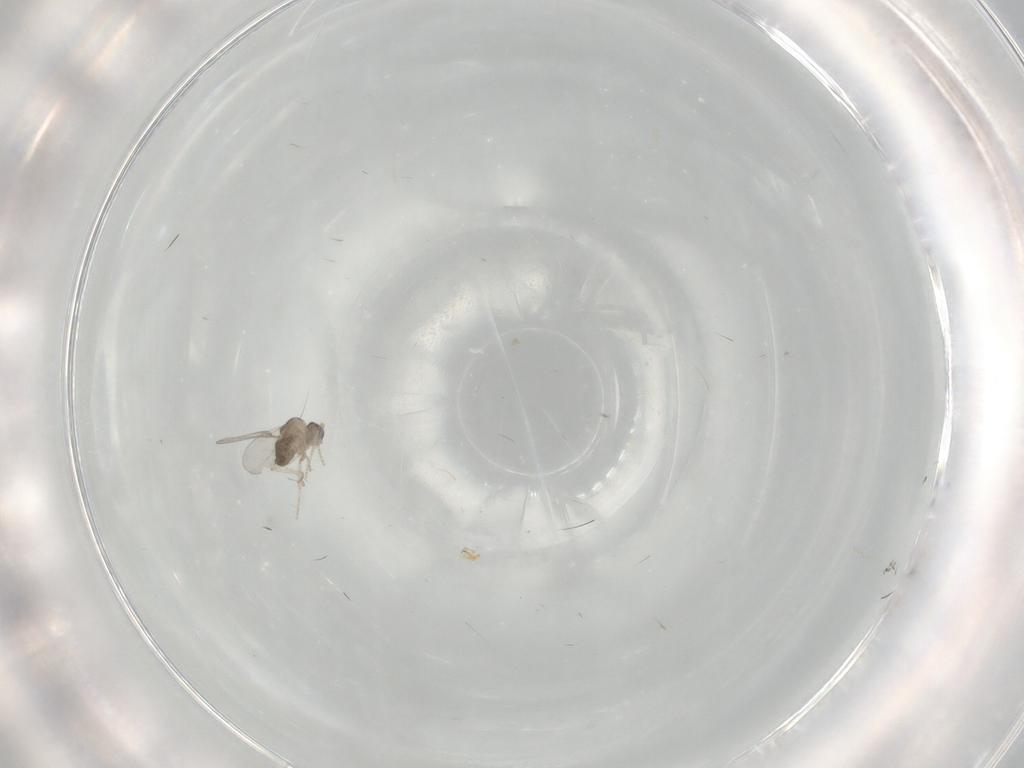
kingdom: Animalia
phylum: Arthropoda
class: Insecta
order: Diptera
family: Cecidomyiidae
